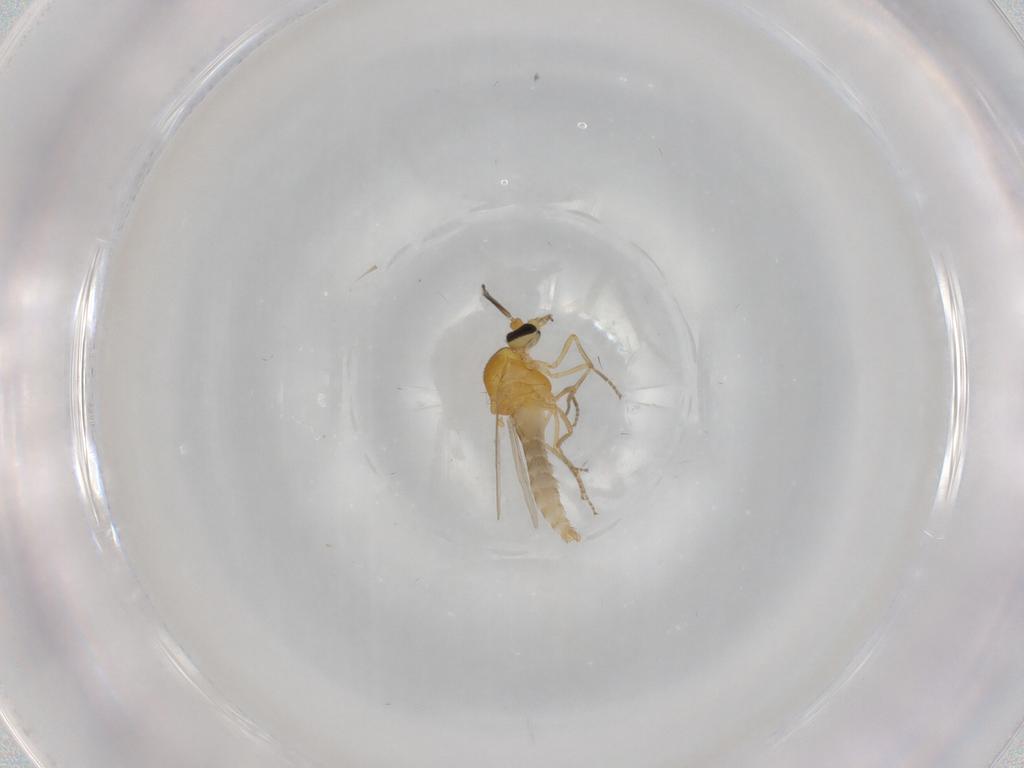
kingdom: Animalia
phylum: Arthropoda
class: Insecta
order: Diptera
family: Ceratopogonidae
